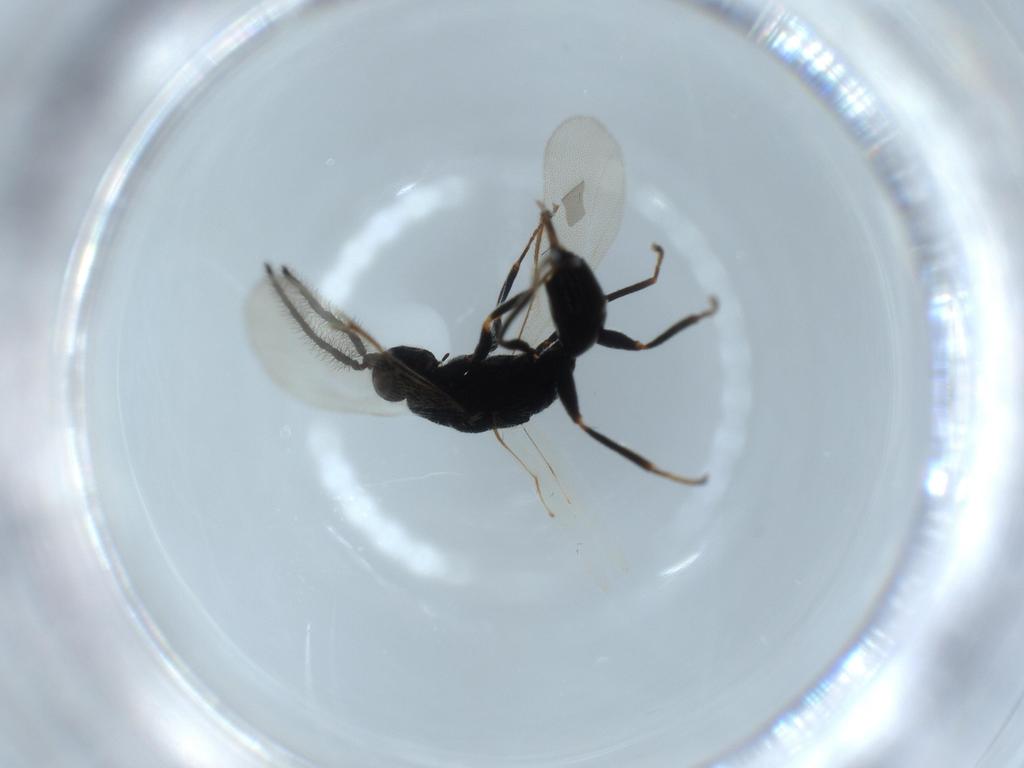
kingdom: Animalia
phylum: Arthropoda
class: Insecta
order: Hymenoptera
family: Eurytomidae
